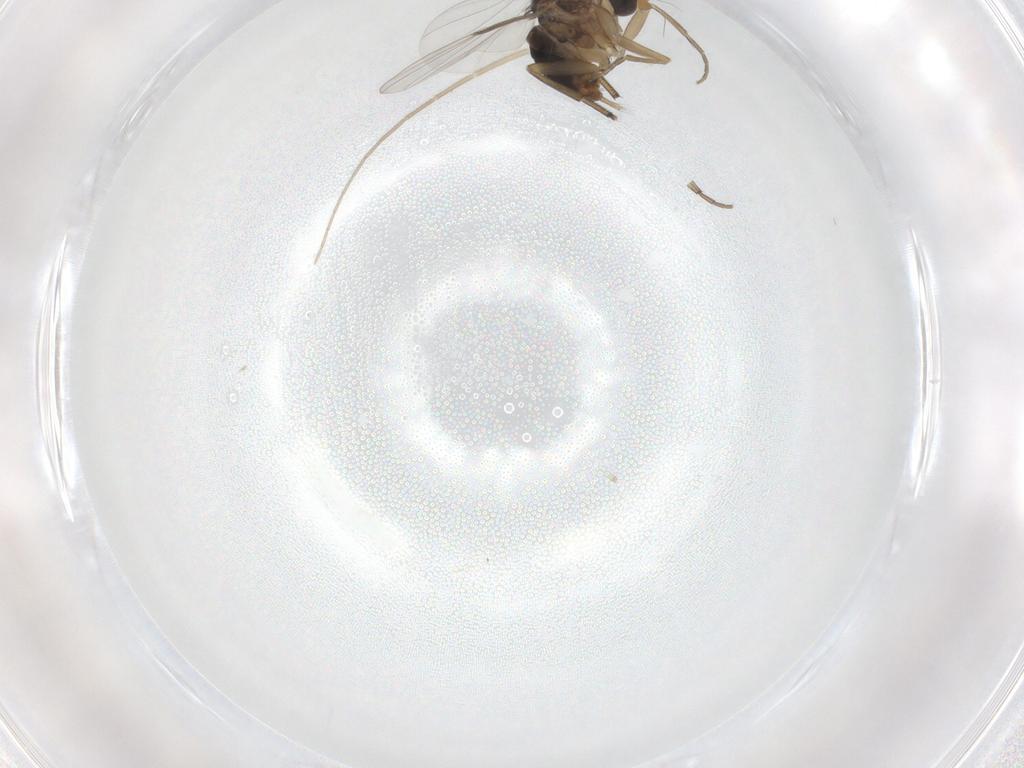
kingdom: Animalia
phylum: Arthropoda
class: Insecta
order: Diptera
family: Phoridae
